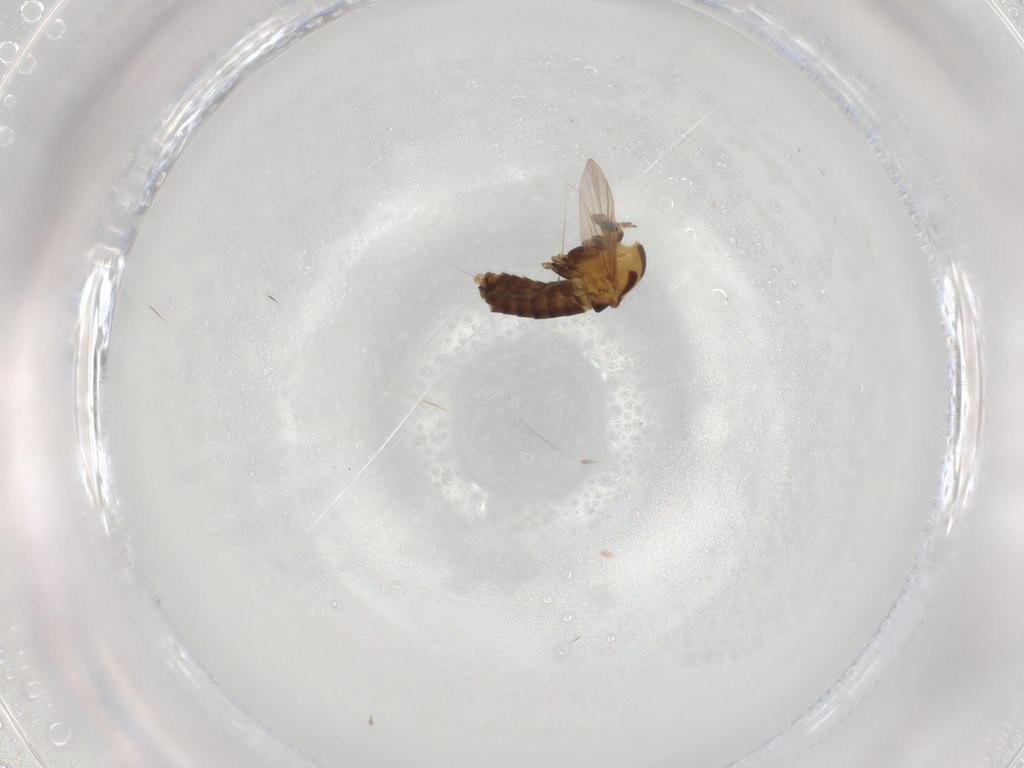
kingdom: Animalia
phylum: Arthropoda
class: Insecta
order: Diptera
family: Chironomidae
